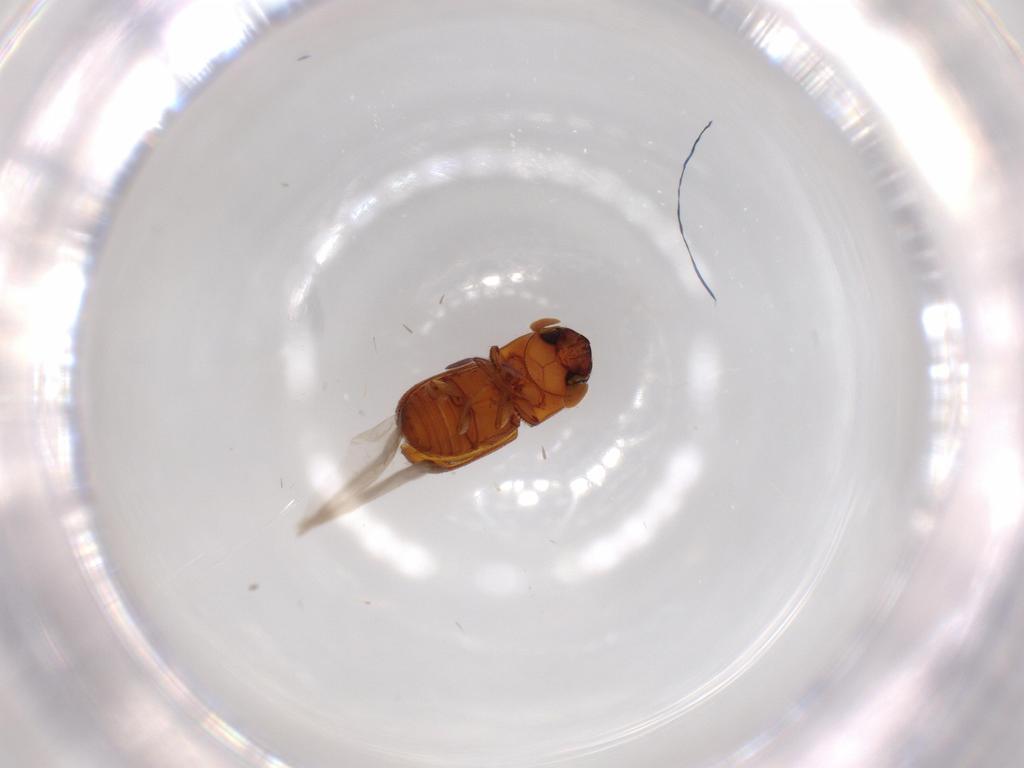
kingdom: Animalia
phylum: Arthropoda
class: Insecta
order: Coleoptera
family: Curculionidae
